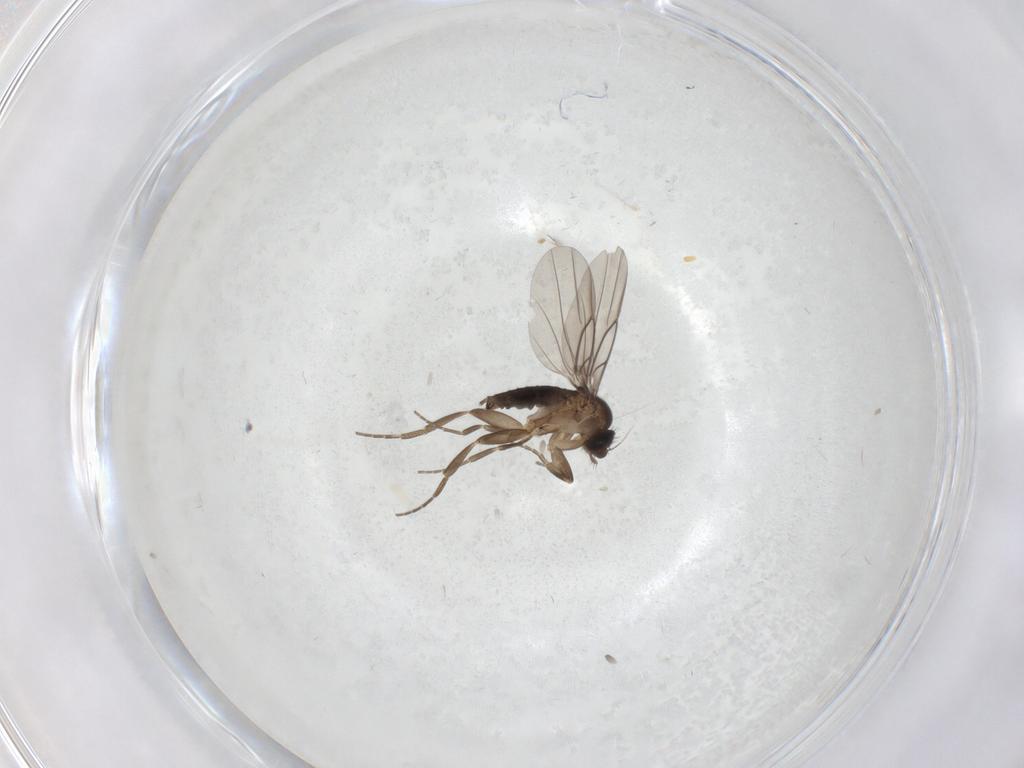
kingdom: Animalia
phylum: Arthropoda
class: Insecta
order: Diptera
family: Phoridae
